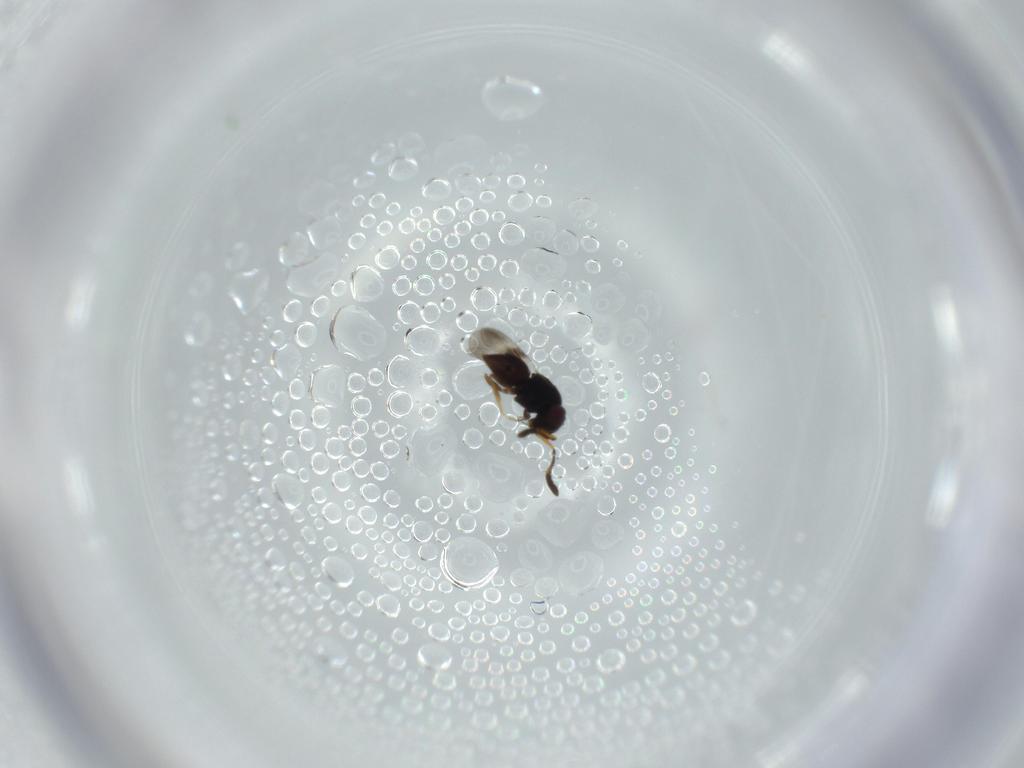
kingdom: Animalia
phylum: Arthropoda
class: Insecta
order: Hymenoptera
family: Ceraphronidae
